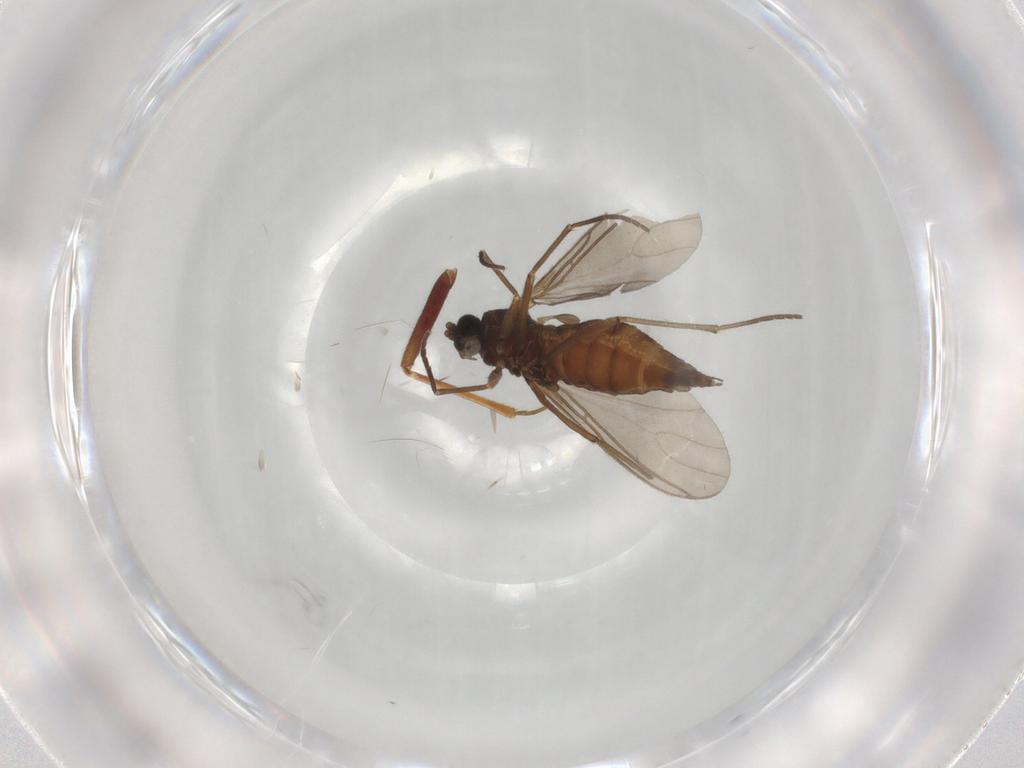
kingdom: Animalia
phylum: Arthropoda
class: Insecta
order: Diptera
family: Sciaridae
